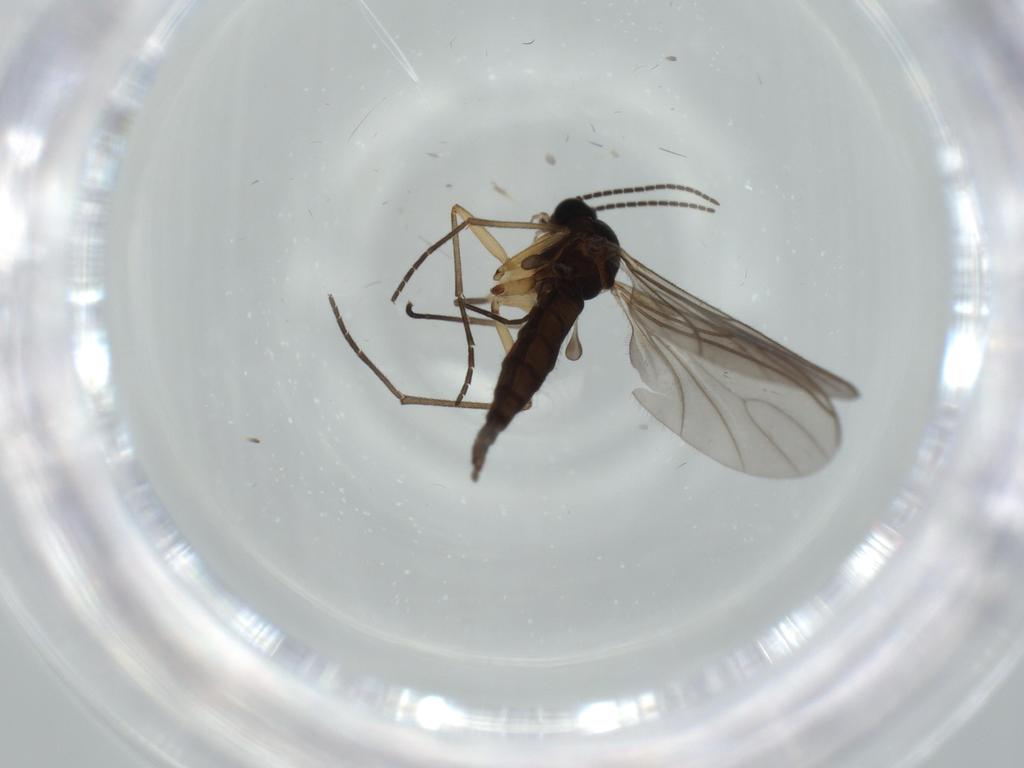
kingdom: Animalia
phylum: Arthropoda
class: Insecta
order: Diptera
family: Sciaridae
